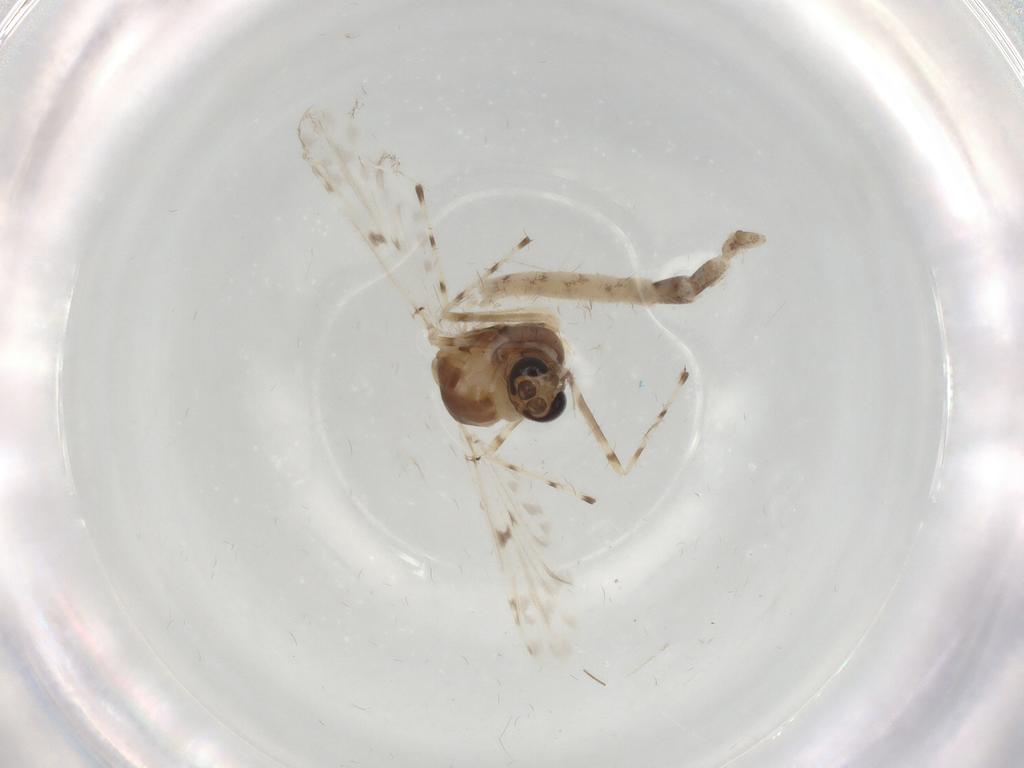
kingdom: Animalia
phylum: Arthropoda
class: Insecta
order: Diptera
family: Chironomidae
